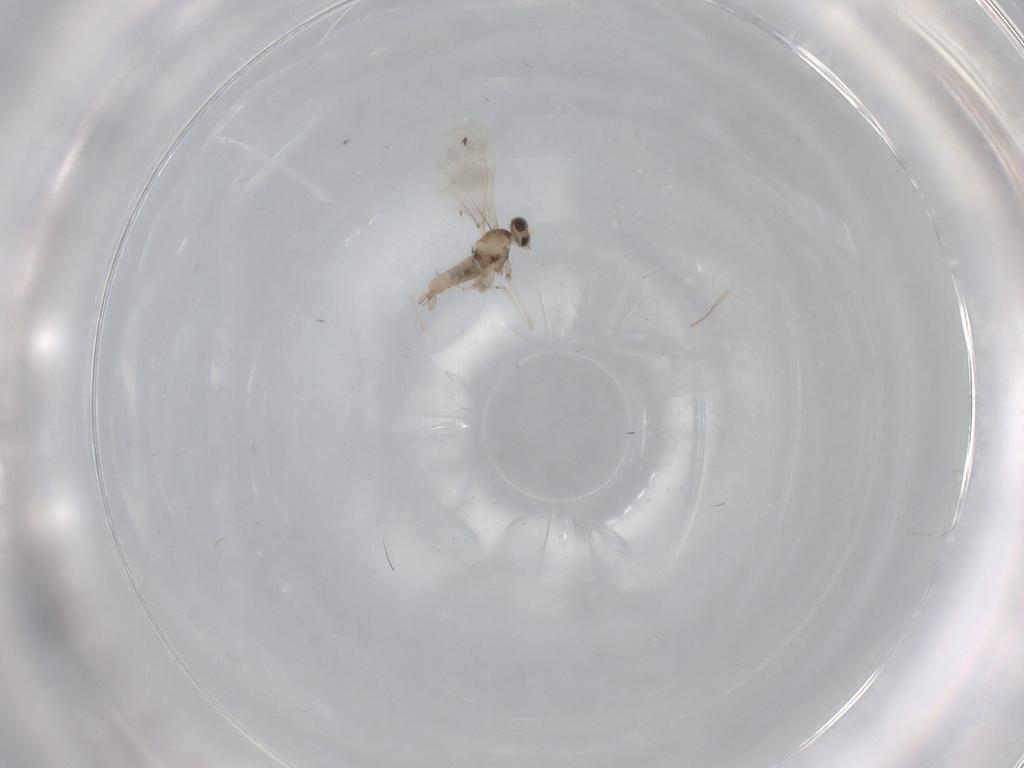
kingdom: Animalia
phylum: Arthropoda
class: Insecta
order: Diptera
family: Cecidomyiidae
